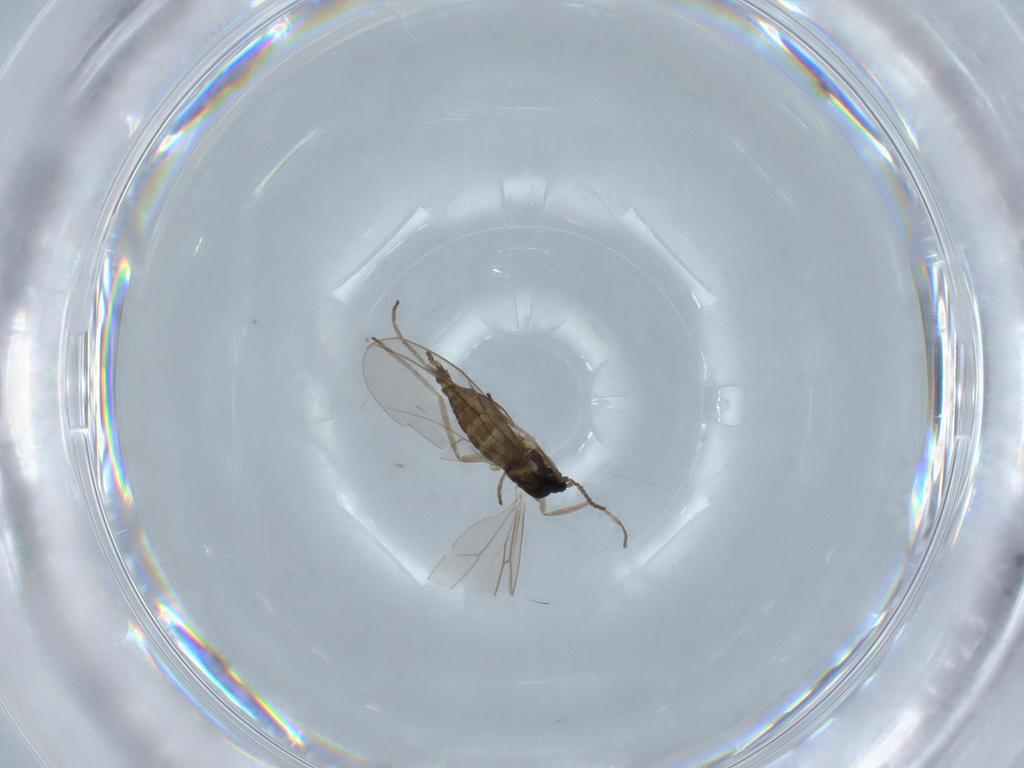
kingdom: Animalia
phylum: Arthropoda
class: Insecta
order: Diptera
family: Cecidomyiidae
